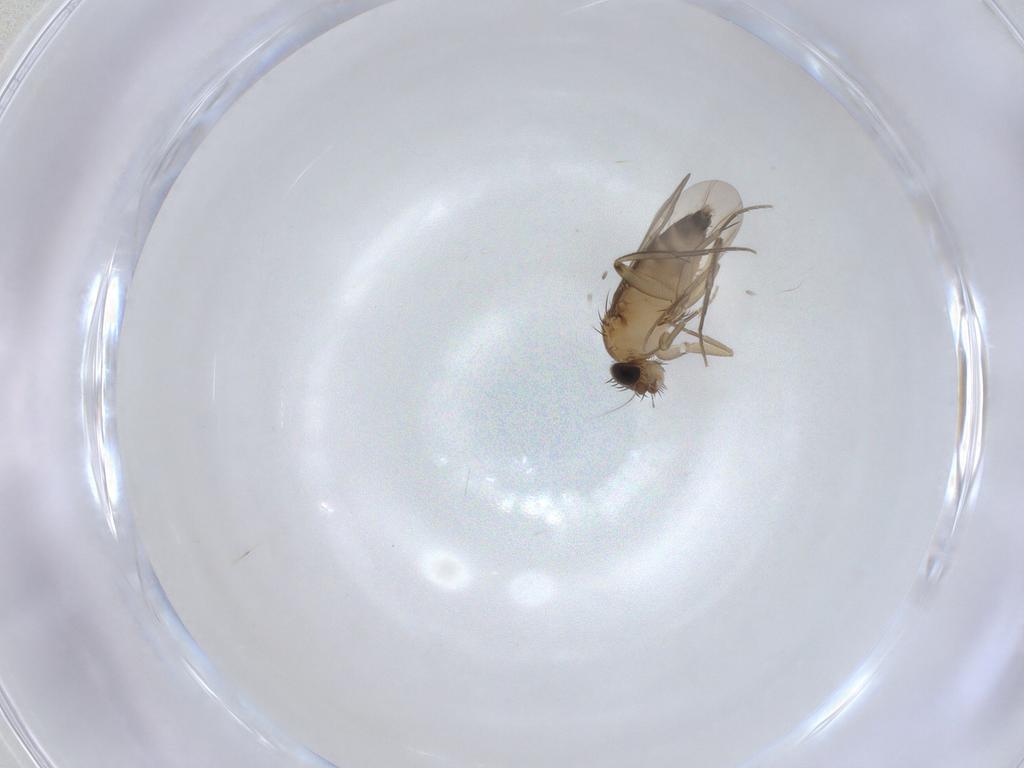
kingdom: Animalia
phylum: Arthropoda
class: Insecta
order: Diptera
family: Phoridae
